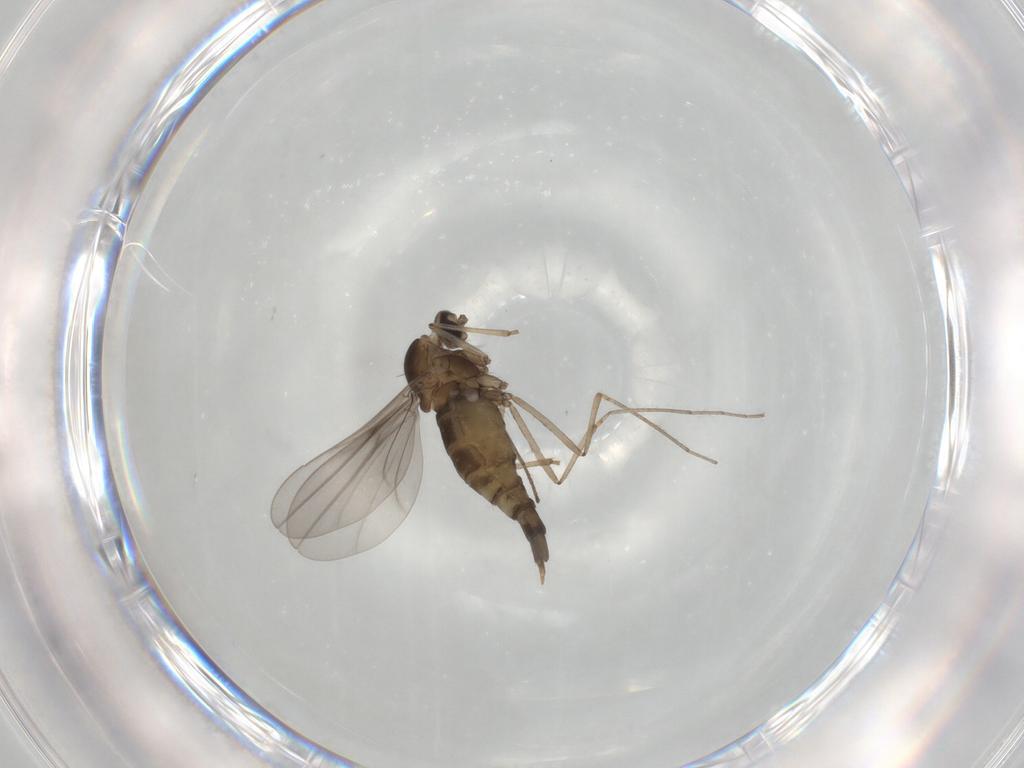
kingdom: Animalia
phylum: Arthropoda
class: Insecta
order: Diptera
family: Cecidomyiidae
